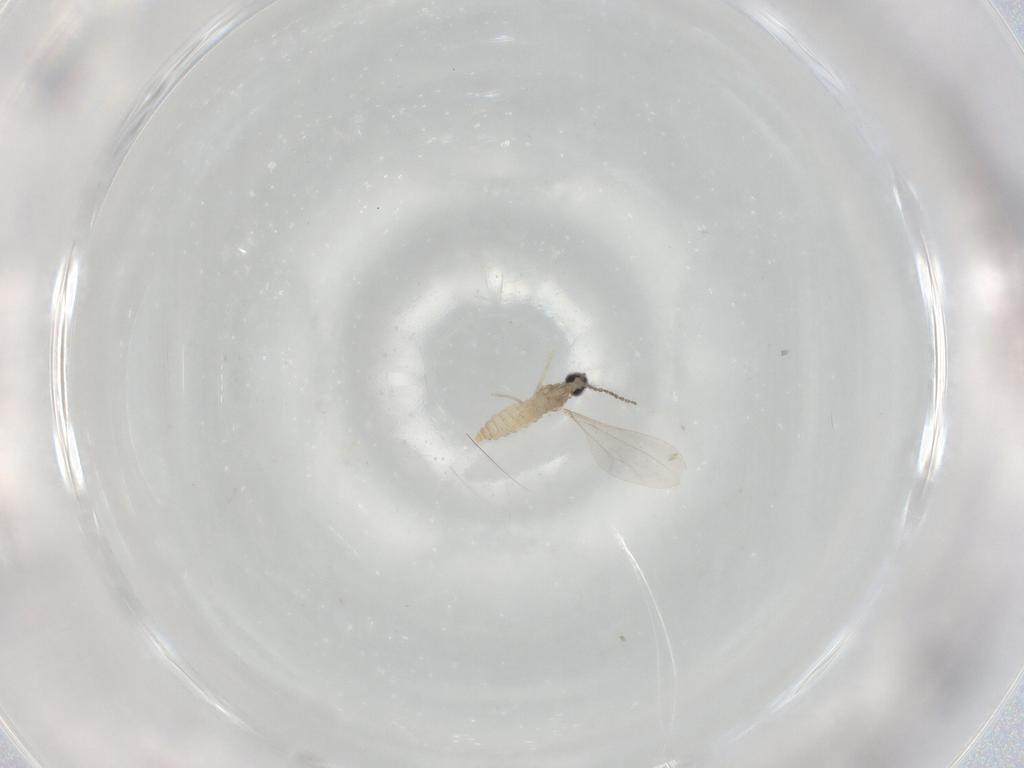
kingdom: Animalia
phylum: Arthropoda
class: Insecta
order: Diptera
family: Cecidomyiidae
